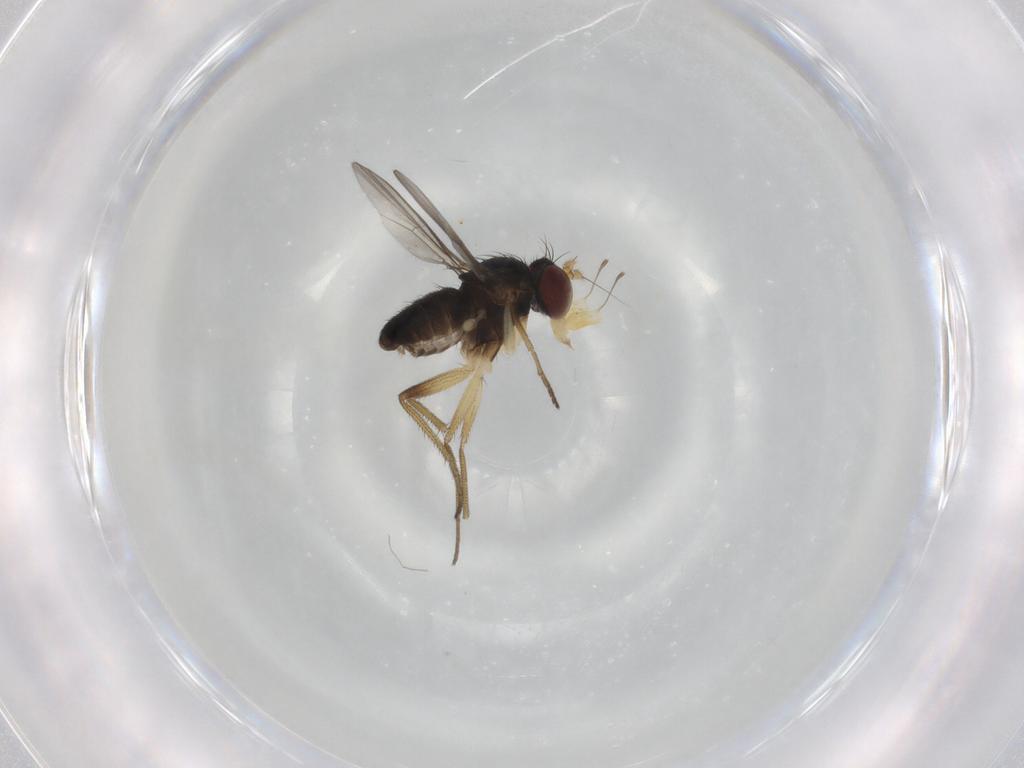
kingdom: Animalia
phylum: Arthropoda
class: Insecta
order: Diptera
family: Dolichopodidae
